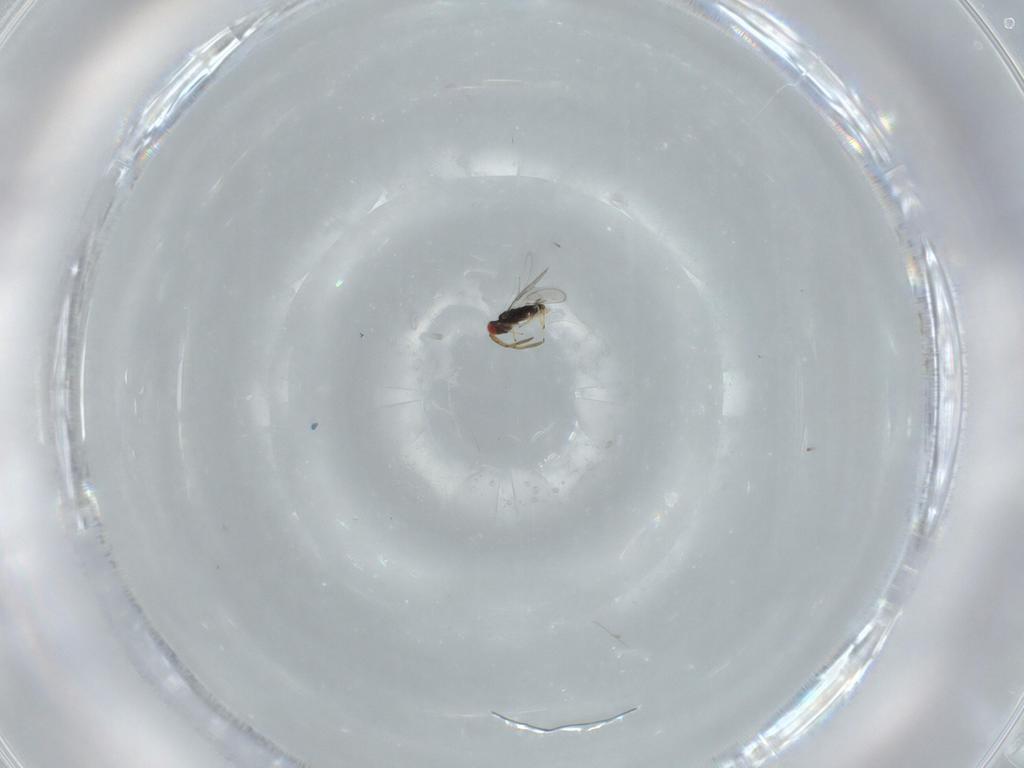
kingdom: Animalia
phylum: Arthropoda
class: Insecta
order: Hymenoptera
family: Azotidae
